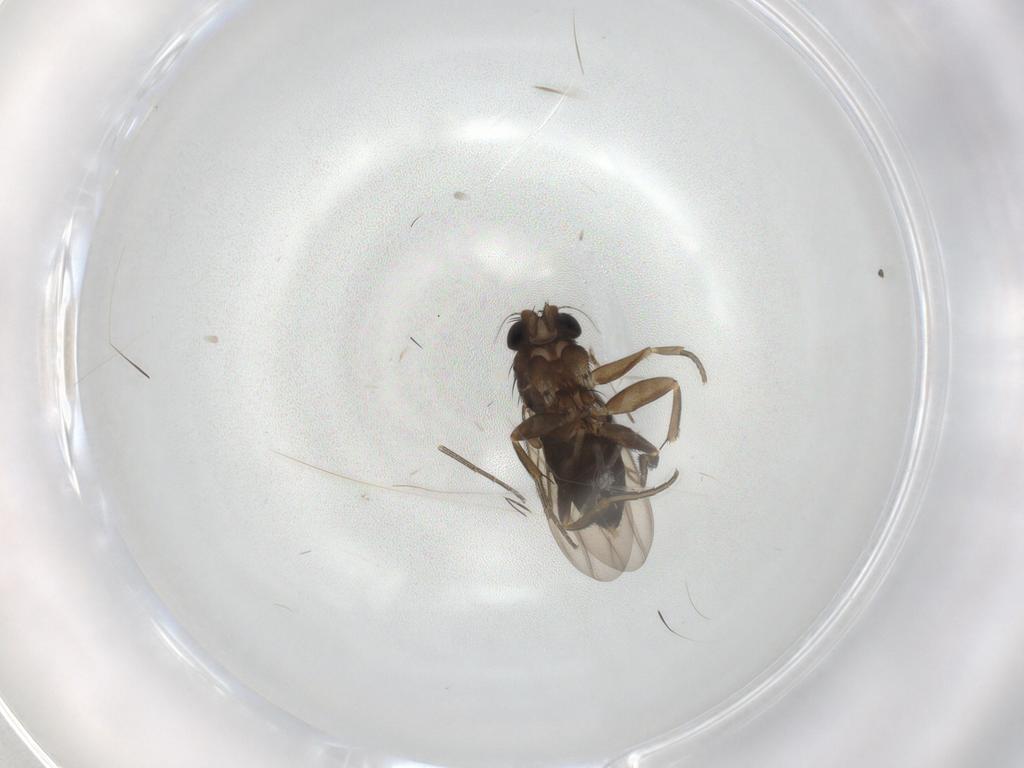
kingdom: Animalia
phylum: Arthropoda
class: Insecta
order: Diptera
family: Phoridae
